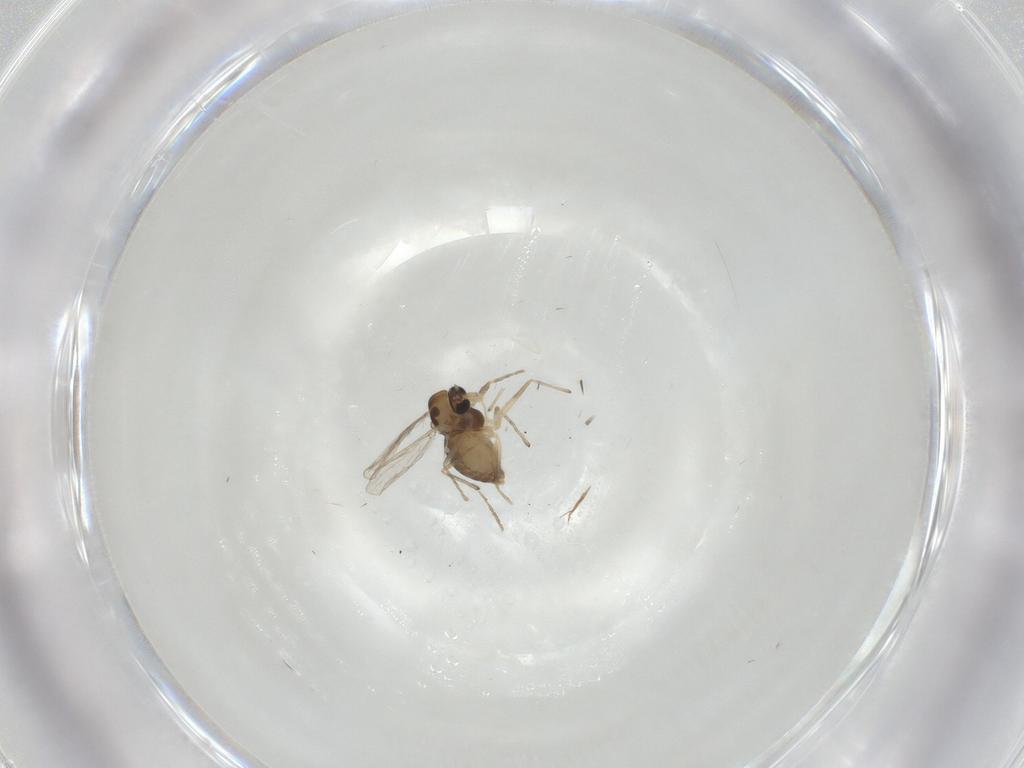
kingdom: Animalia
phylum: Arthropoda
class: Insecta
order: Diptera
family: Chironomidae
